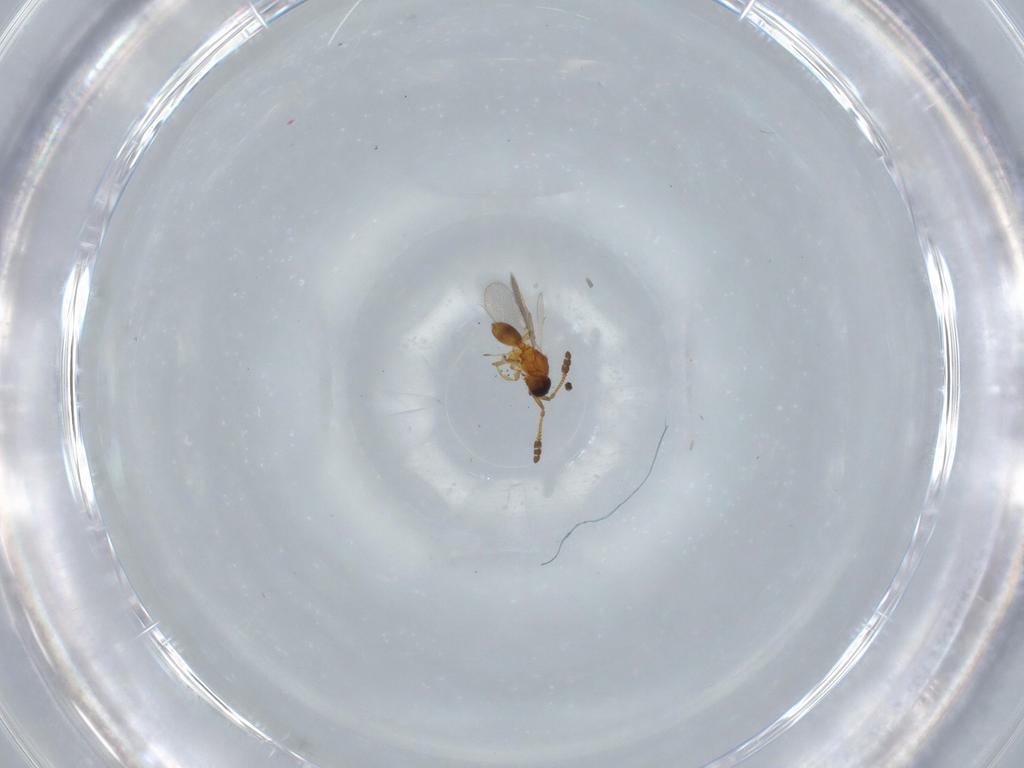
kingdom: Animalia
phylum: Arthropoda
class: Insecta
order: Hymenoptera
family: Diapriidae
